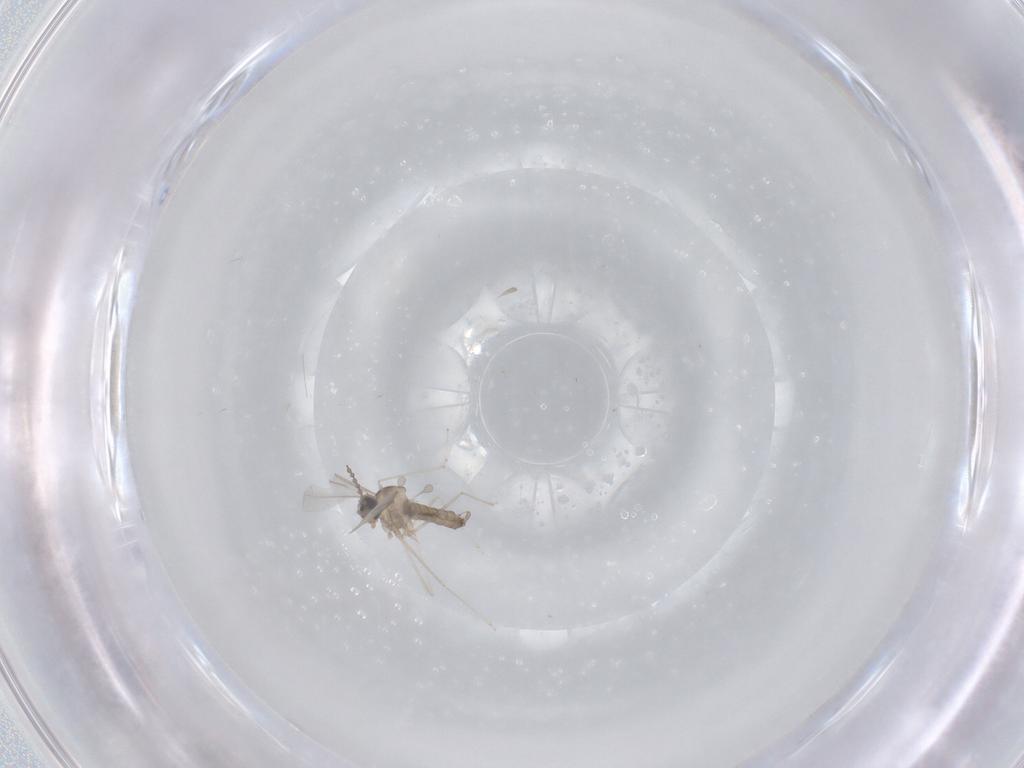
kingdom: Animalia
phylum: Arthropoda
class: Insecta
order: Diptera
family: Cecidomyiidae
